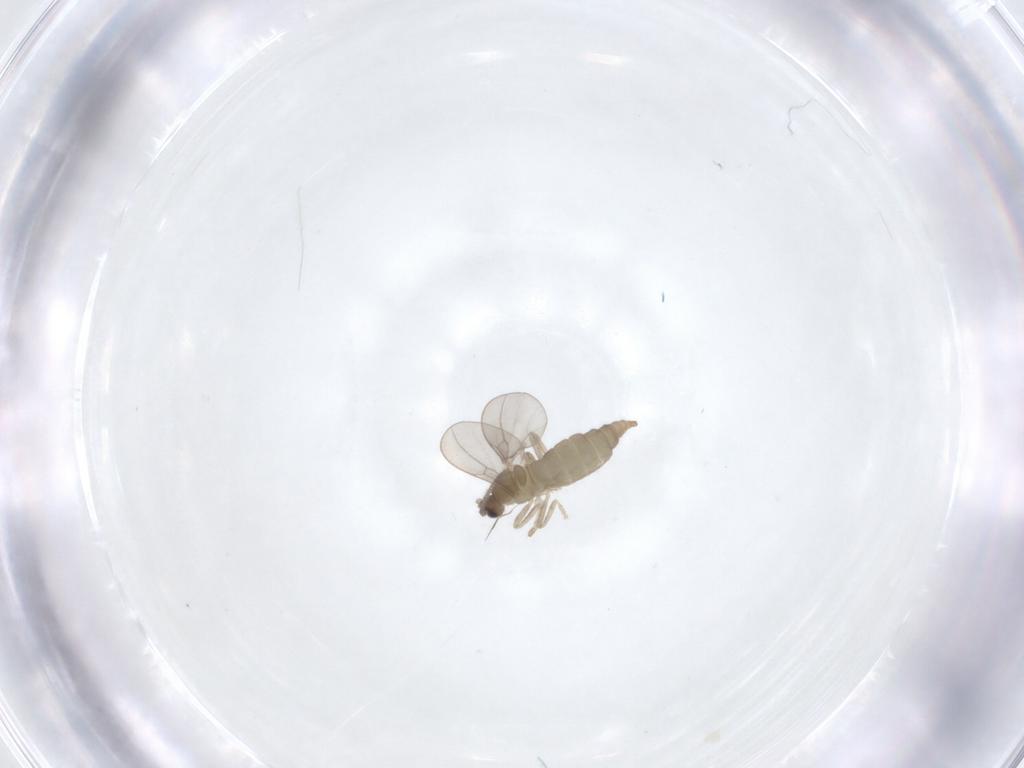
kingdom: Animalia
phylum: Arthropoda
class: Insecta
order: Diptera
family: Cecidomyiidae
